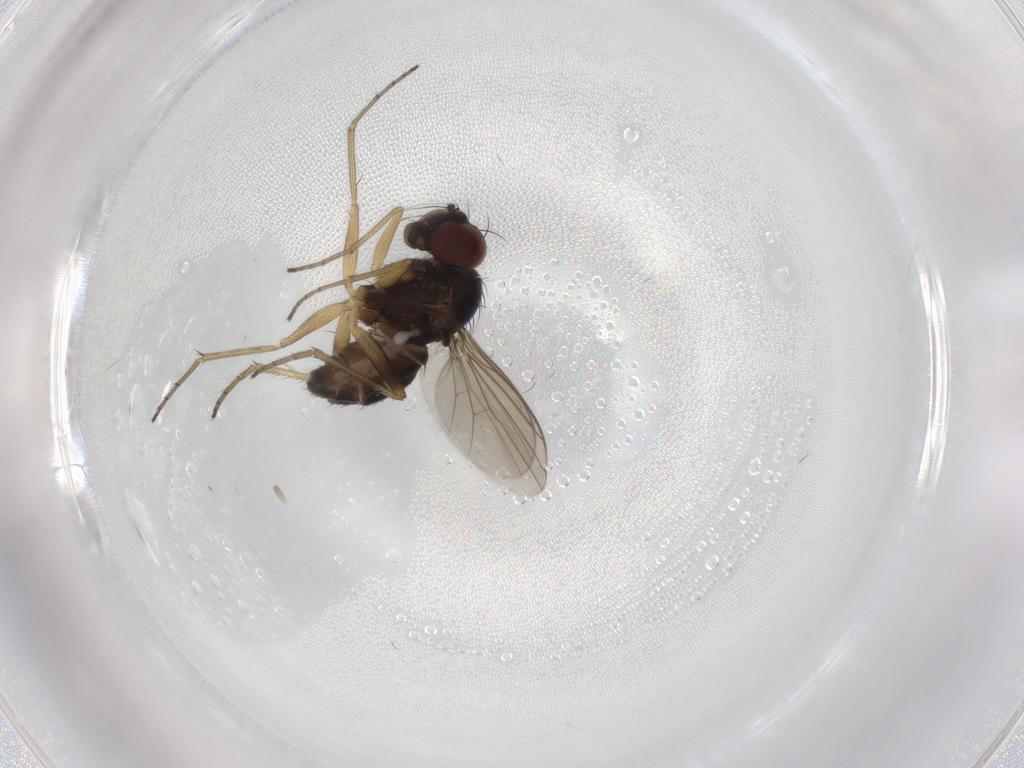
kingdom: Animalia
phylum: Arthropoda
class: Insecta
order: Diptera
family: Dolichopodidae
